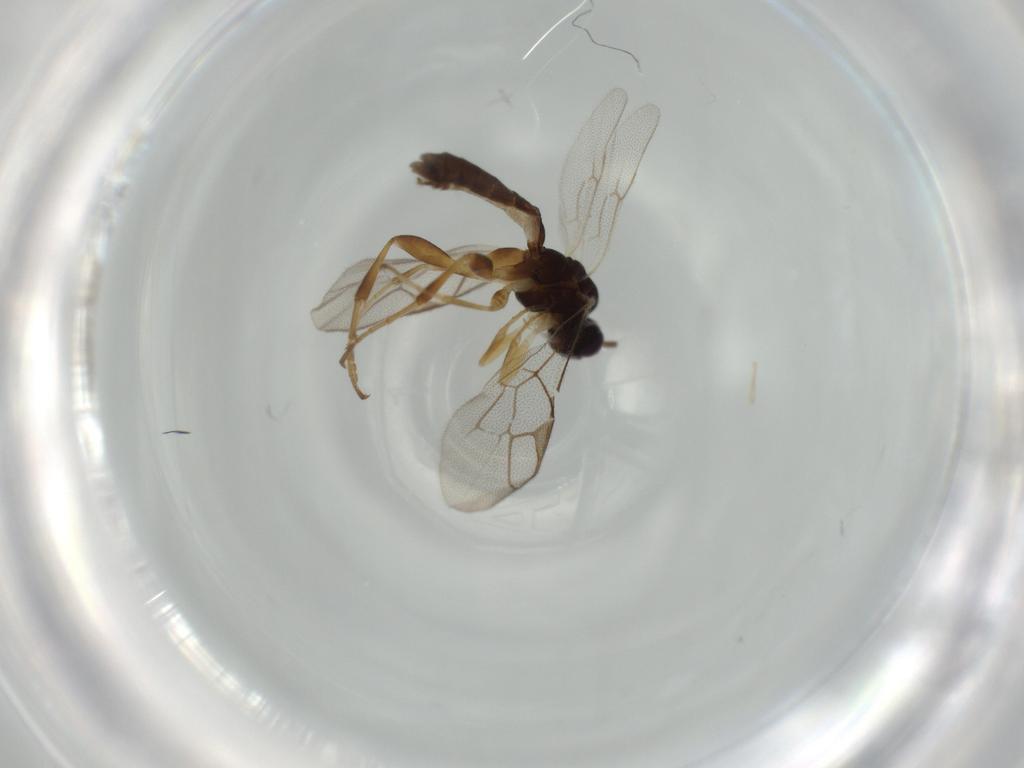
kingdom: Animalia
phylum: Arthropoda
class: Insecta
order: Hymenoptera
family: Ichneumonidae
